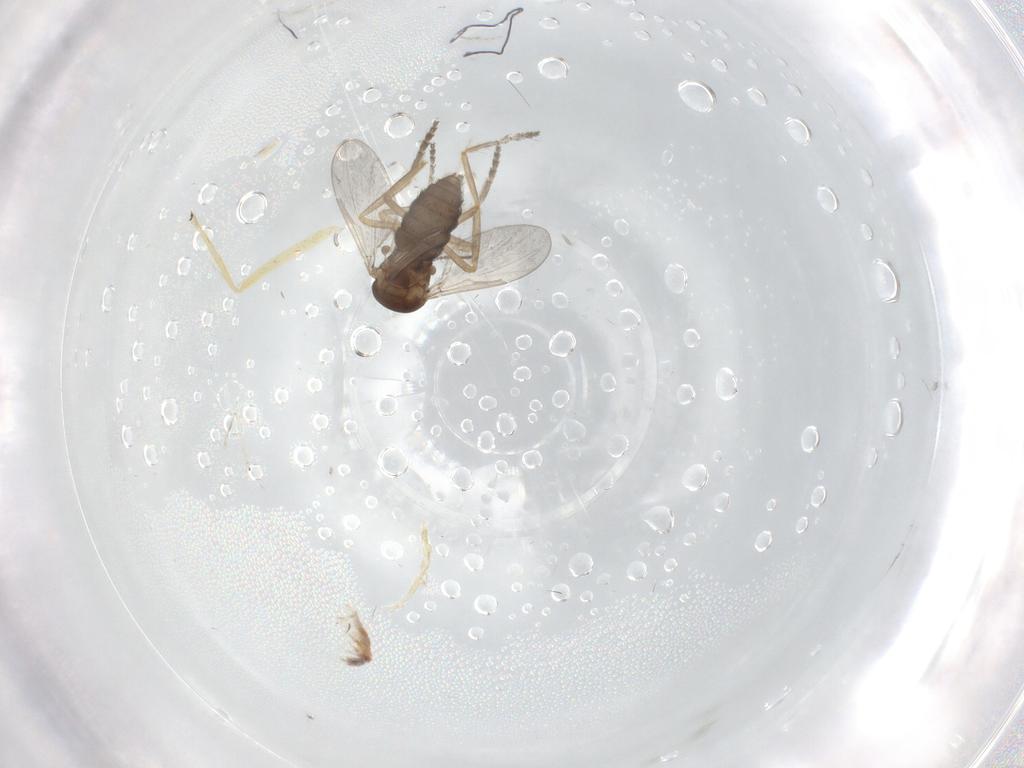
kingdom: Animalia
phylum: Arthropoda
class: Insecta
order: Diptera
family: Ceratopogonidae
